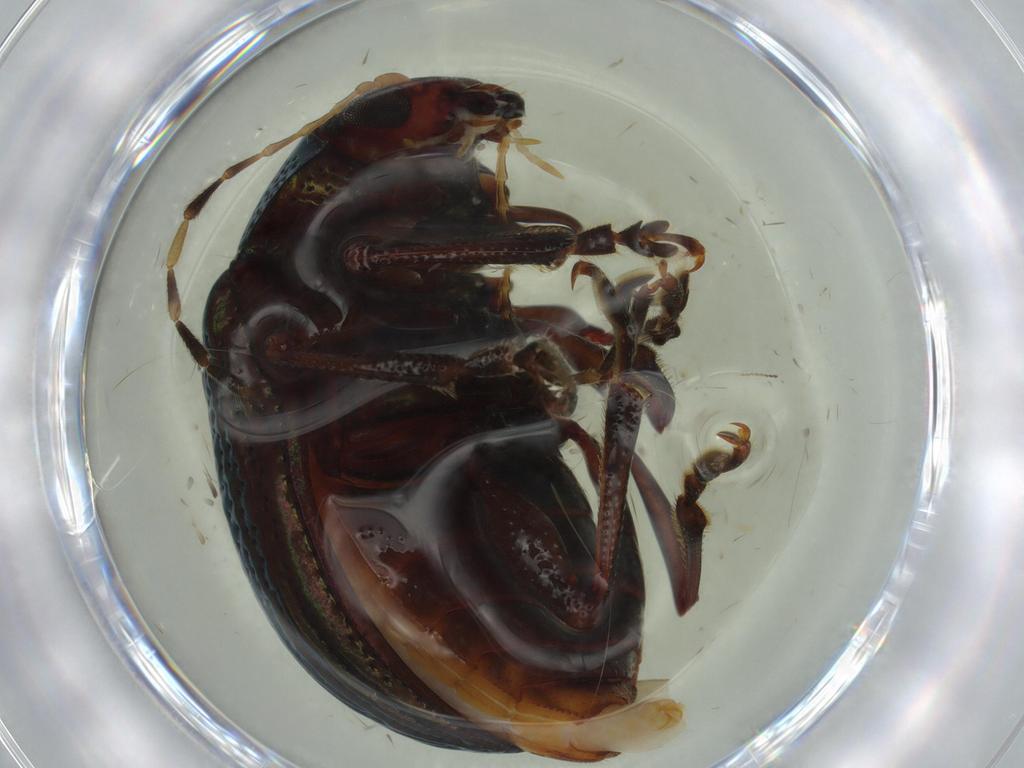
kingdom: Animalia
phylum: Arthropoda
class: Insecta
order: Coleoptera
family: Chrysomelidae
